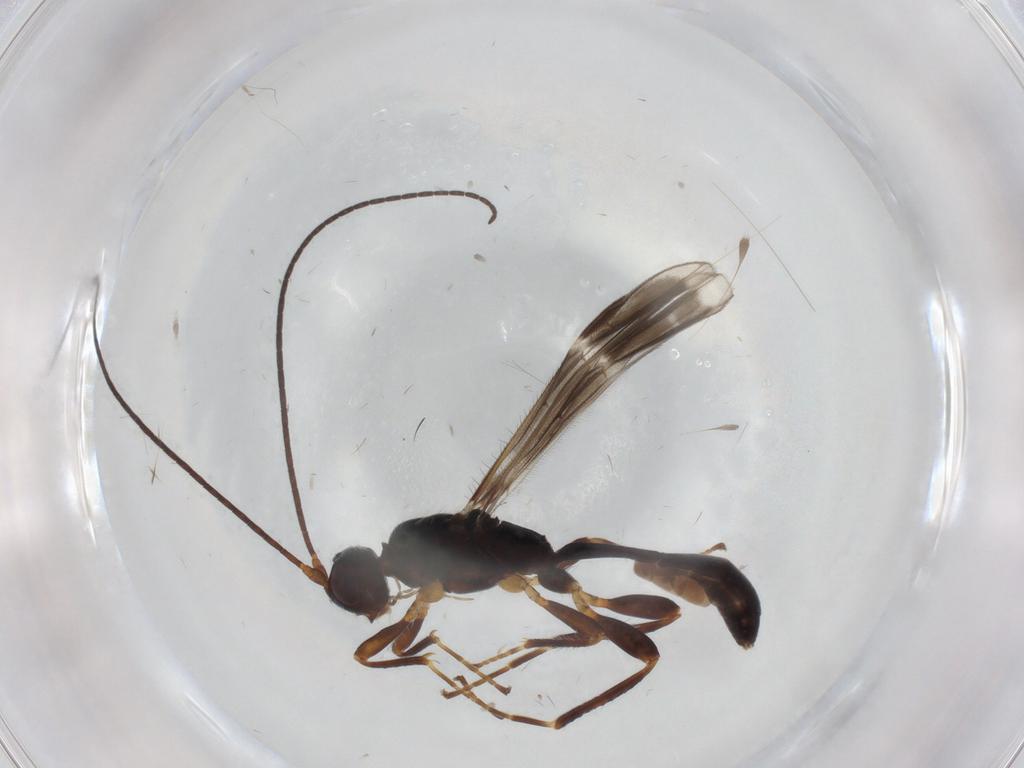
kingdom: Animalia
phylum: Arthropoda
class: Insecta
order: Hymenoptera
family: Braconidae
